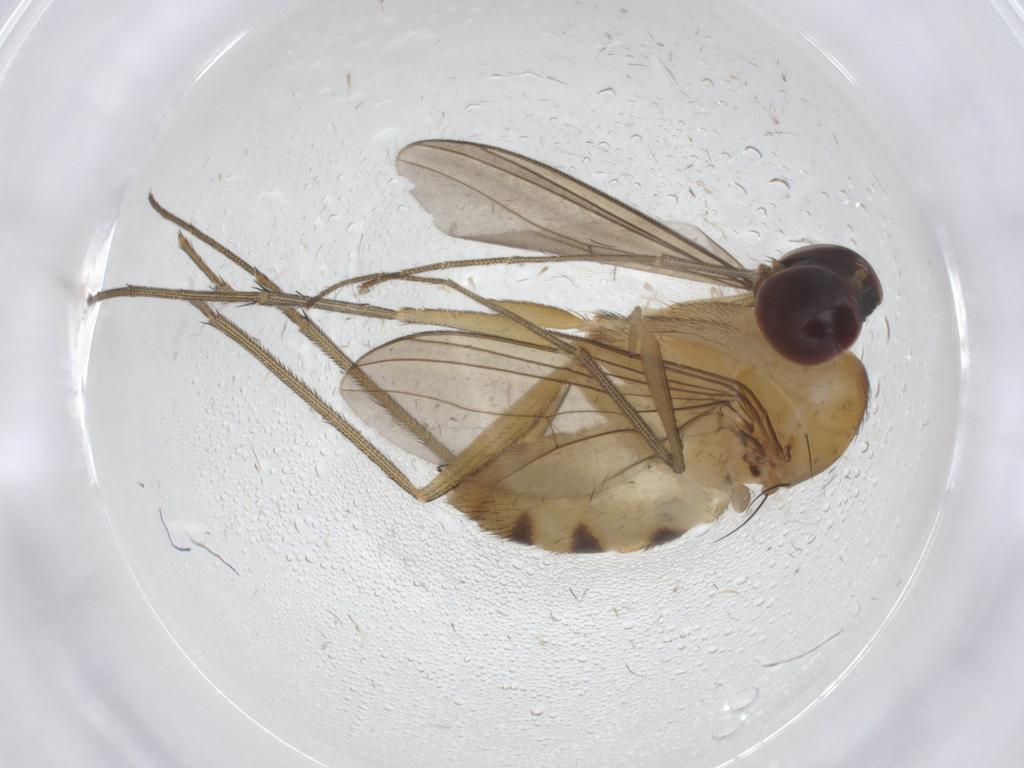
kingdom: Animalia
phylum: Arthropoda
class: Insecta
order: Diptera
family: Dolichopodidae
